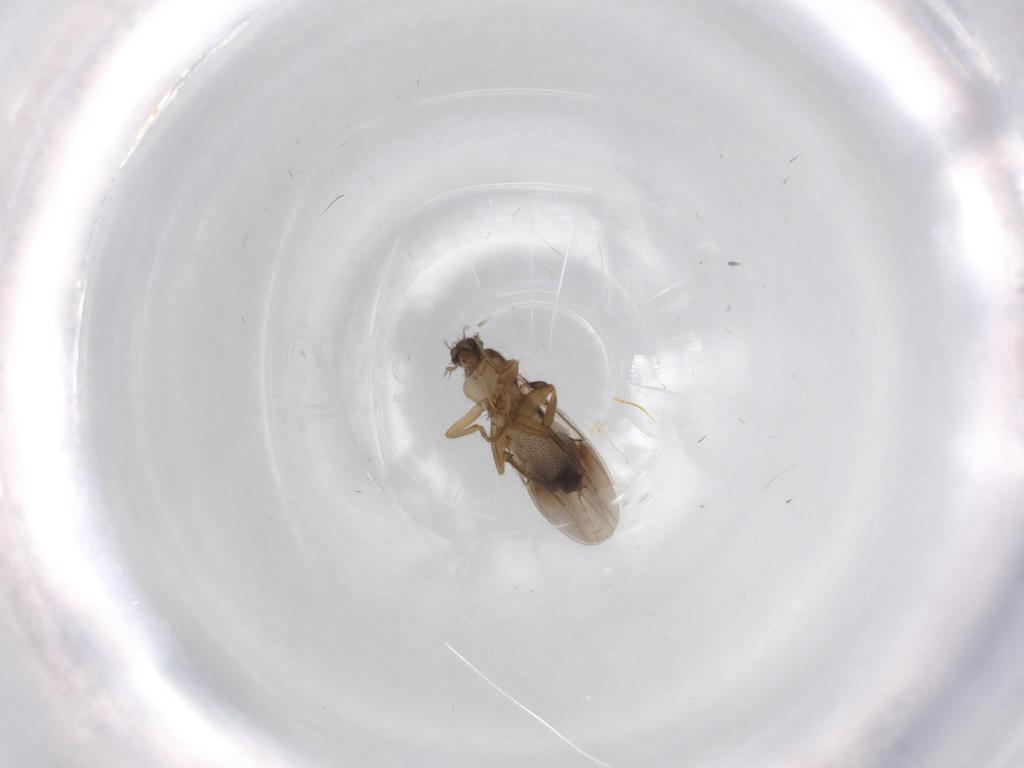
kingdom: Animalia
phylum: Arthropoda
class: Insecta
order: Diptera
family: Phoridae
